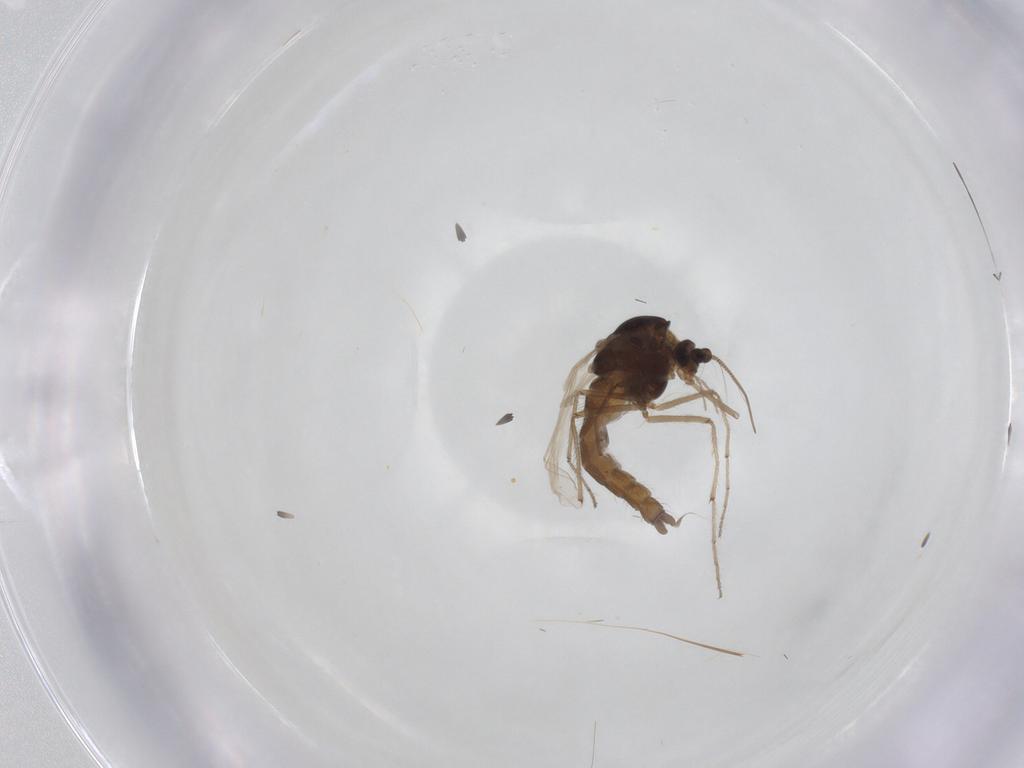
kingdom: Animalia
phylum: Arthropoda
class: Insecta
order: Diptera
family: Chironomidae
